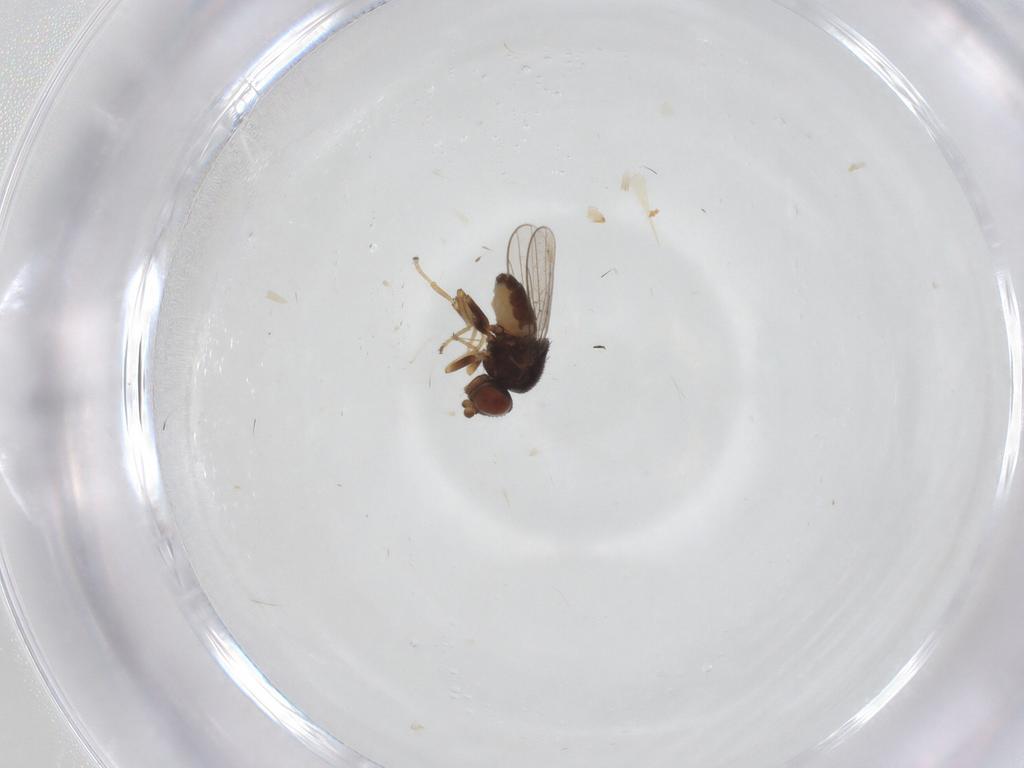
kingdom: Animalia
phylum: Arthropoda
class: Insecta
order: Diptera
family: Chloropidae
